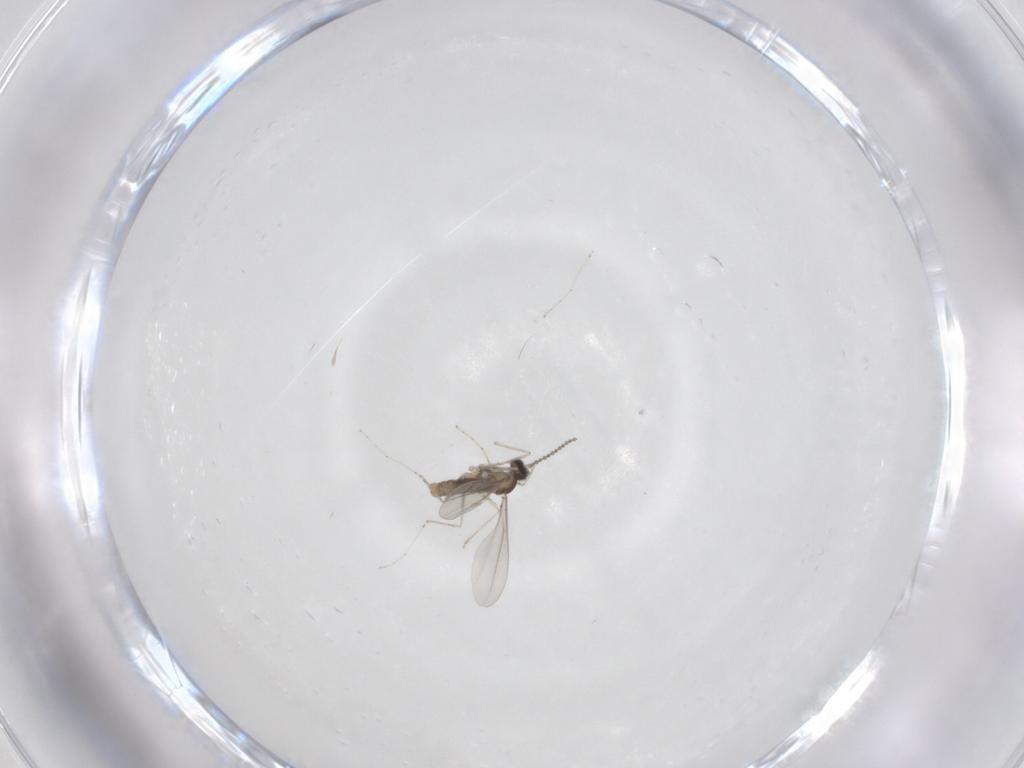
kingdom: Animalia
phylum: Arthropoda
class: Insecta
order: Diptera
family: Cecidomyiidae
